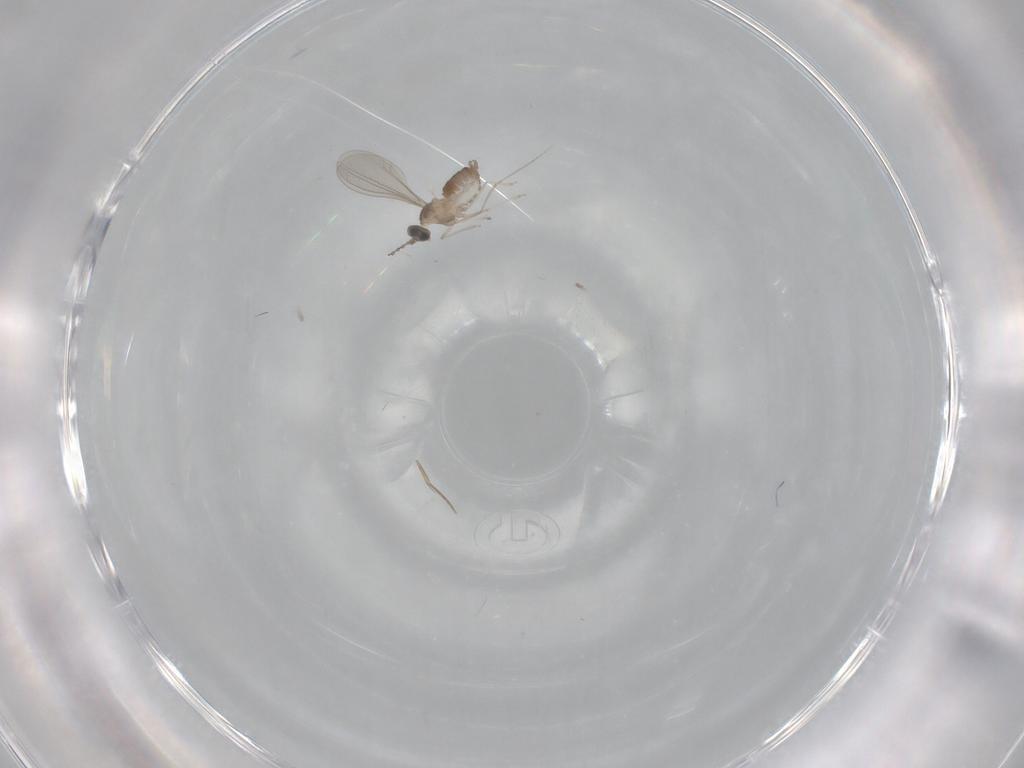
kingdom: Animalia
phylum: Arthropoda
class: Insecta
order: Diptera
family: Cecidomyiidae
